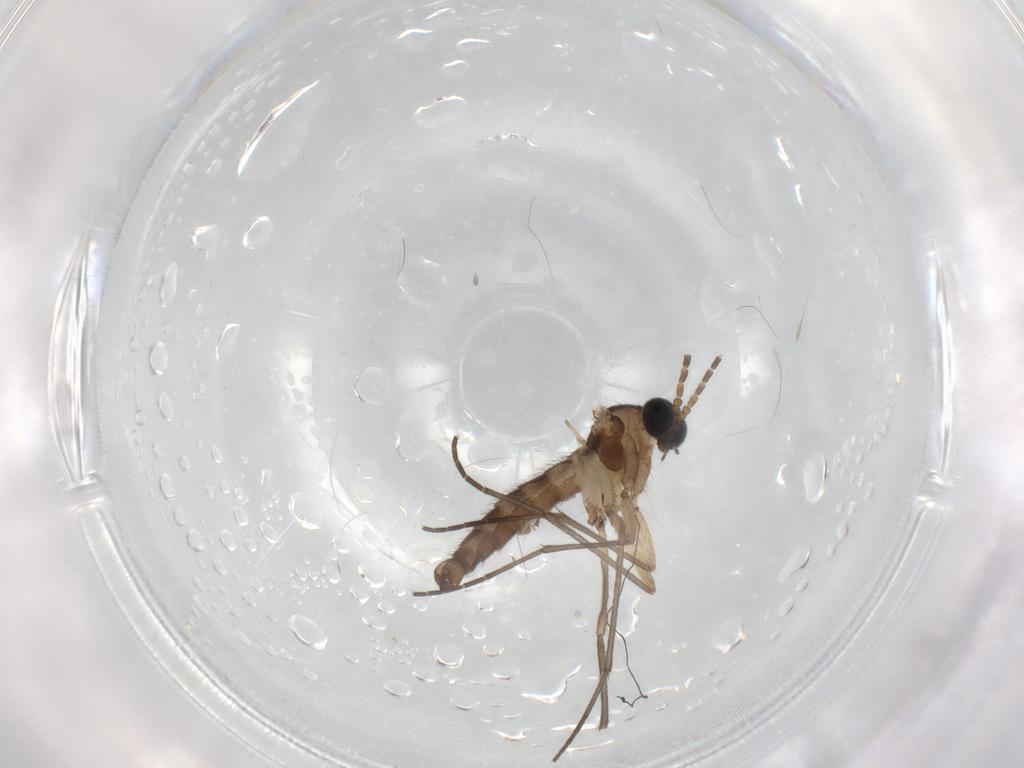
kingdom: Animalia
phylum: Arthropoda
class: Insecta
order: Diptera
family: Sciaridae
